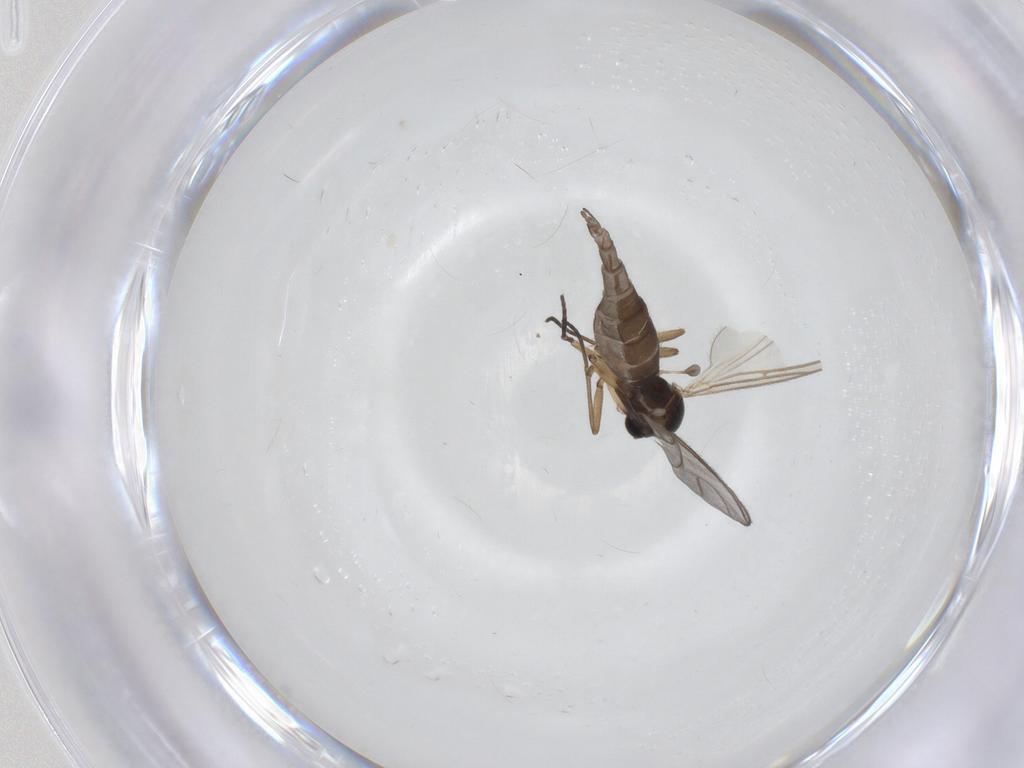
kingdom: Animalia
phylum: Arthropoda
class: Insecta
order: Diptera
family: Sciaridae
